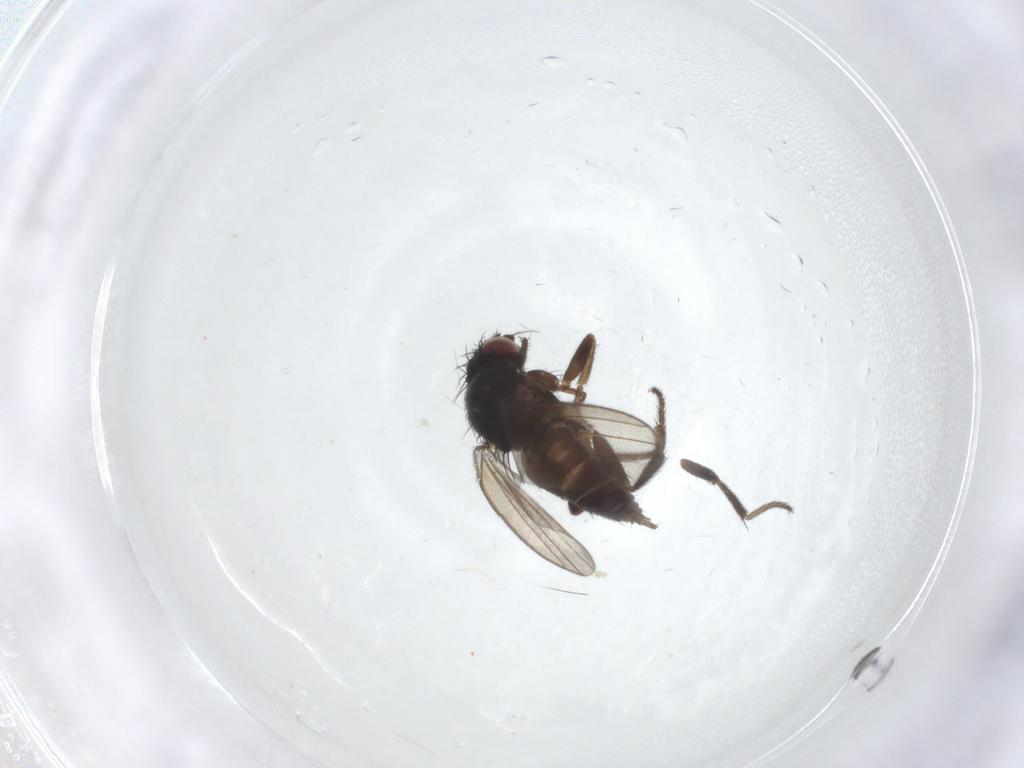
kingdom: Animalia
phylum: Arthropoda
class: Insecta
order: Diptera
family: Milichiidae
